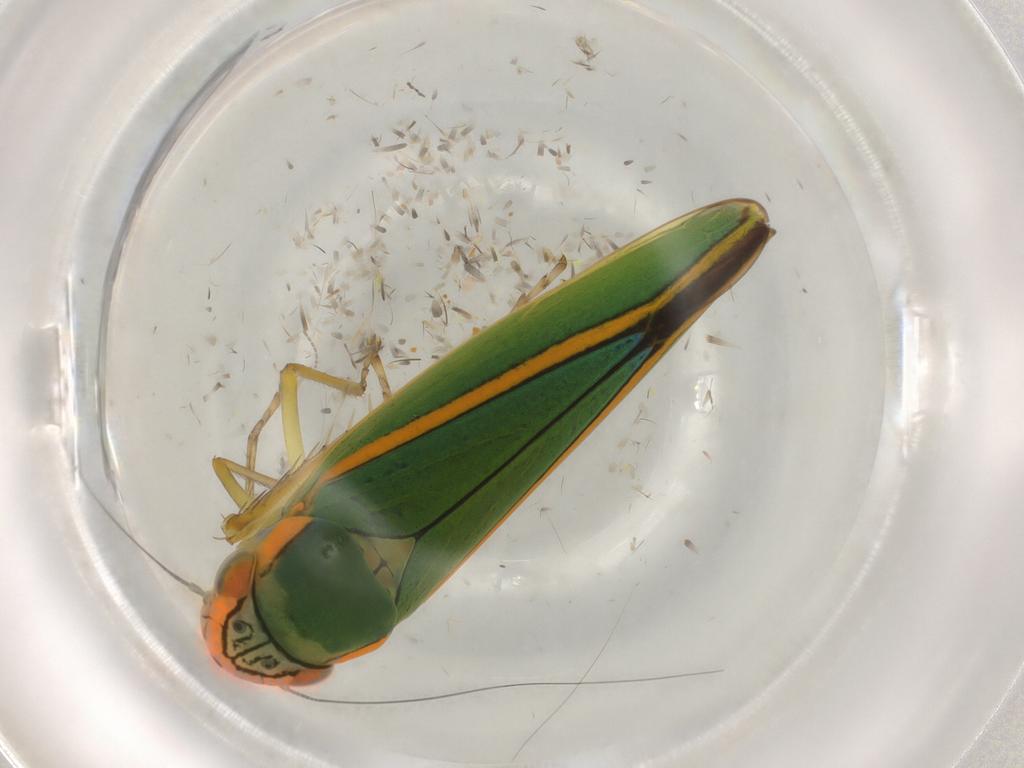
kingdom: Animalia
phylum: Arthropoda
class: Insecta
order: Hemiptera
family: Cicadellidae
